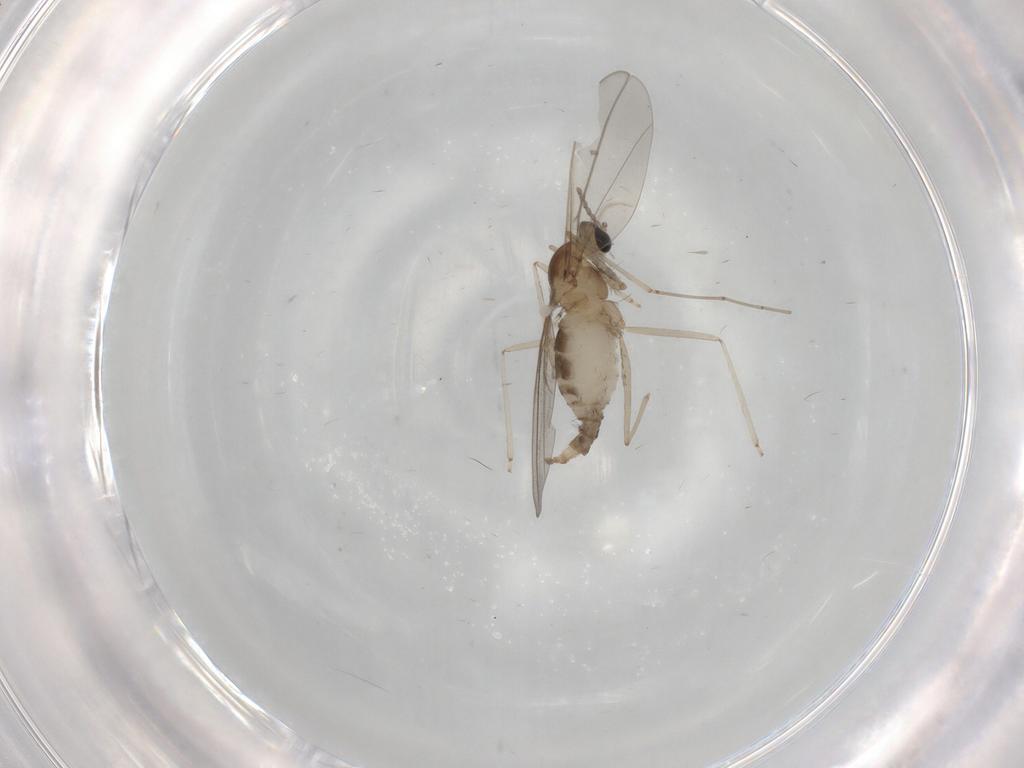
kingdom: Animalia
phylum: Arthropoda
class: Insecta
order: Diptera
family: Cecidomyiidae
